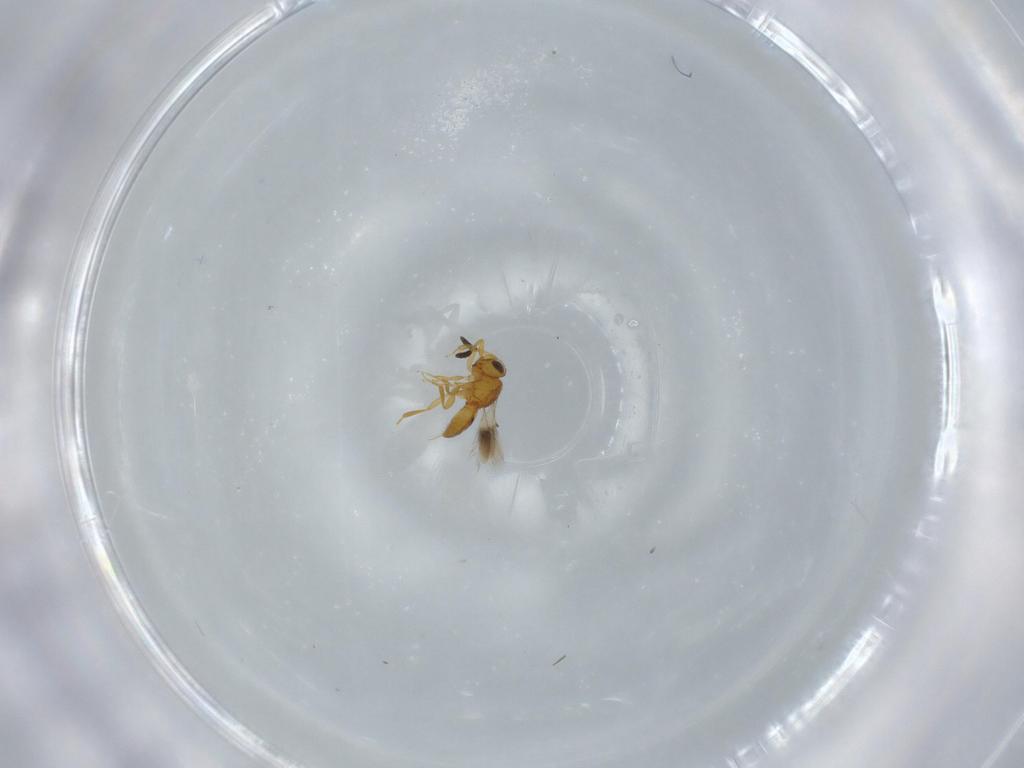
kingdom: Animalia
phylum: Arthropoda
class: Insecta
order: Hymenoptera
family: Scelionidae
